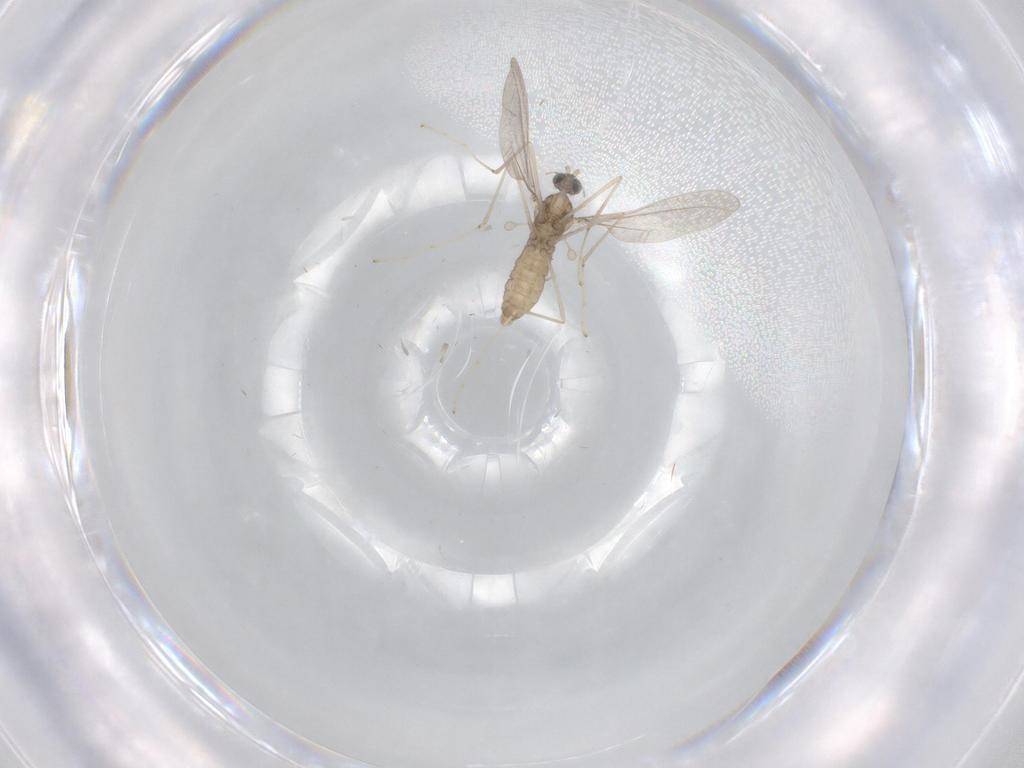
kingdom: Animalia
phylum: Arthropoda
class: Insecta
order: Diptera
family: Cecidomyiidae
